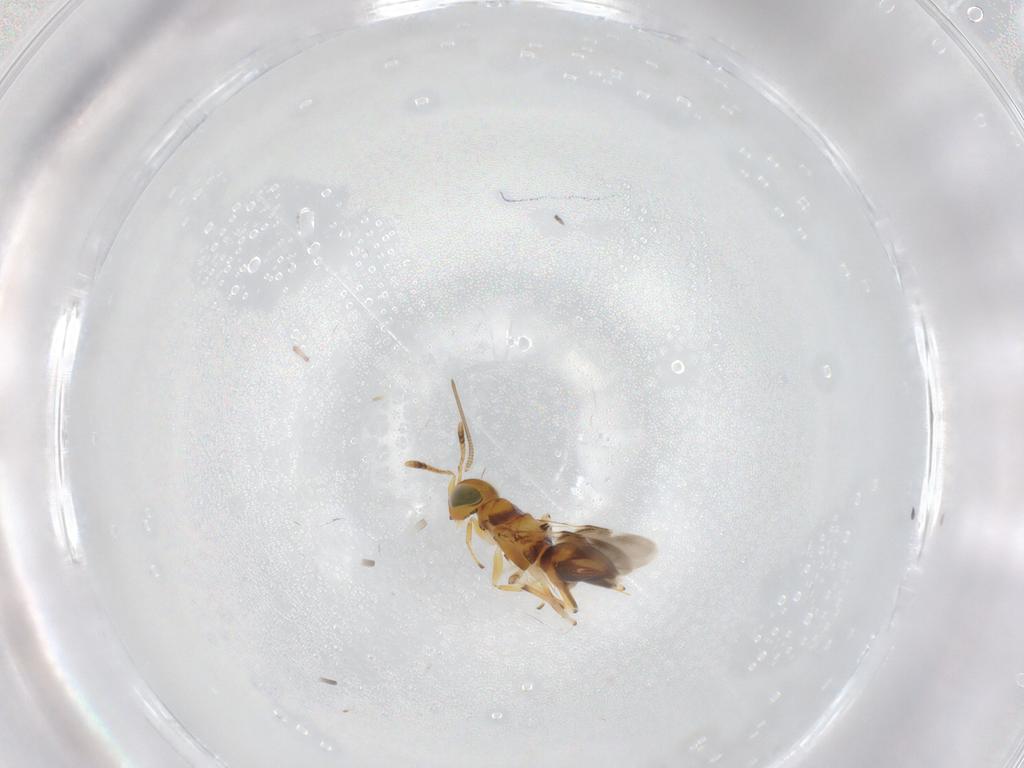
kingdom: Animalia
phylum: Arthropoda
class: Insecta
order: Hymenoptera
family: Encyrtidae
